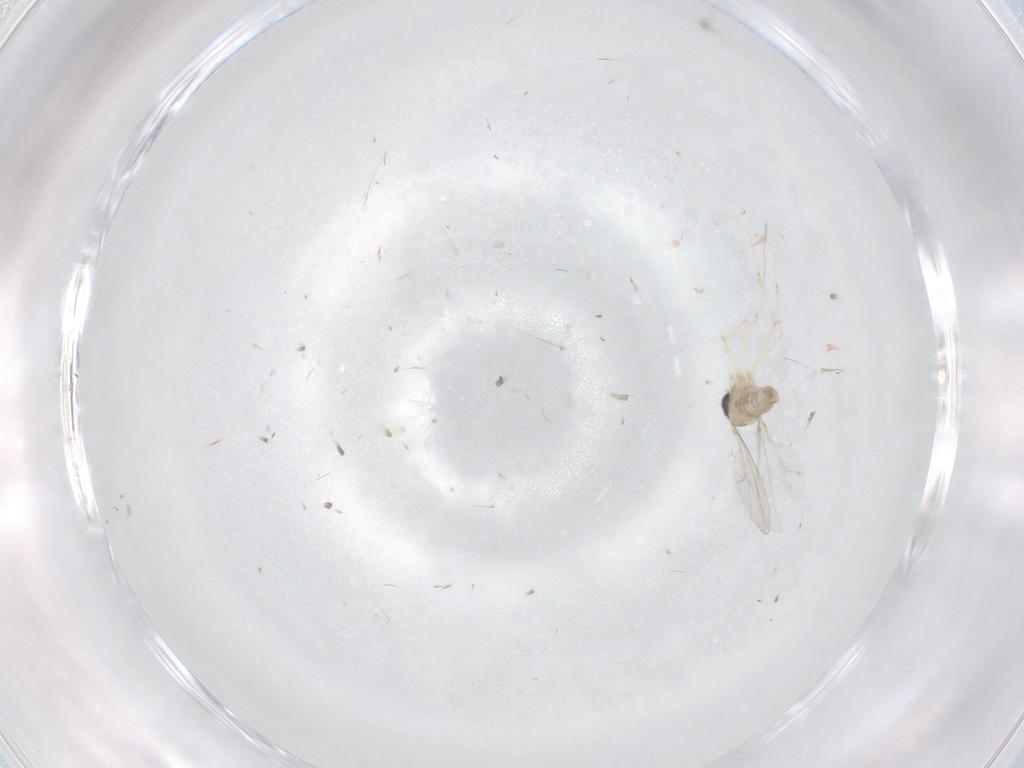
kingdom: Animalia
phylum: Arthropoda
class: Insecta
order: Diptera
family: Cecidomyiidae
